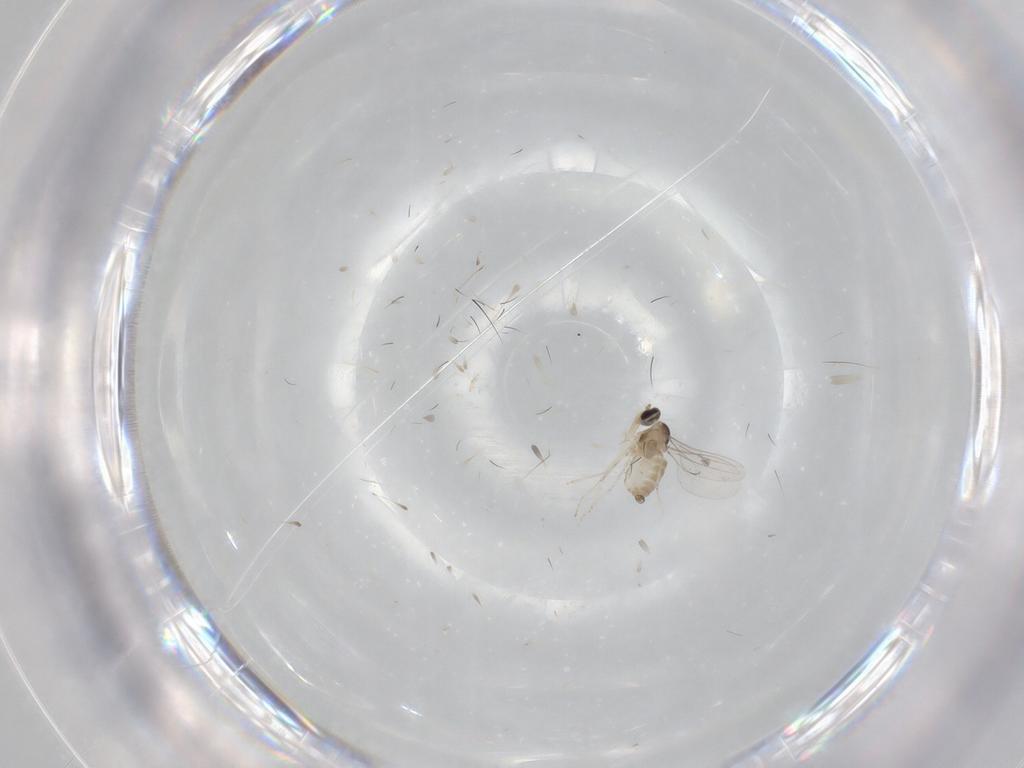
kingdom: Animalia
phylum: Arthropoda
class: Insecta
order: Diptera
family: Cecidomyiidae
